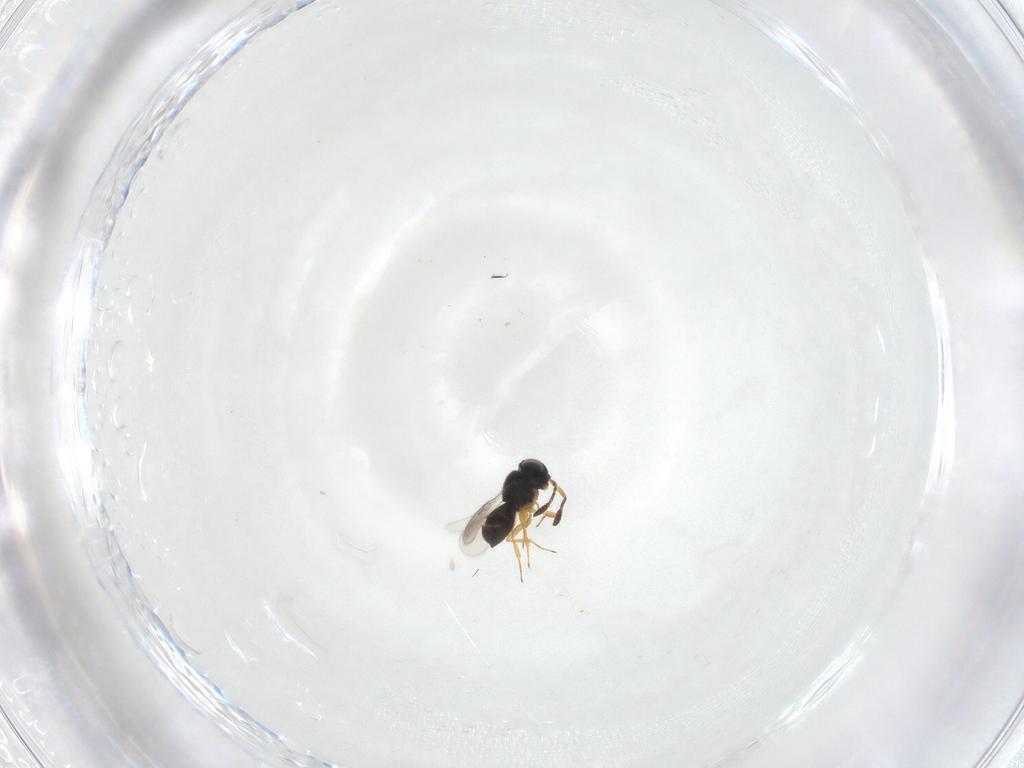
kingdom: Animalia
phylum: Arthropoda
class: Insecta
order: Hymenoptera
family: Scelionidae
